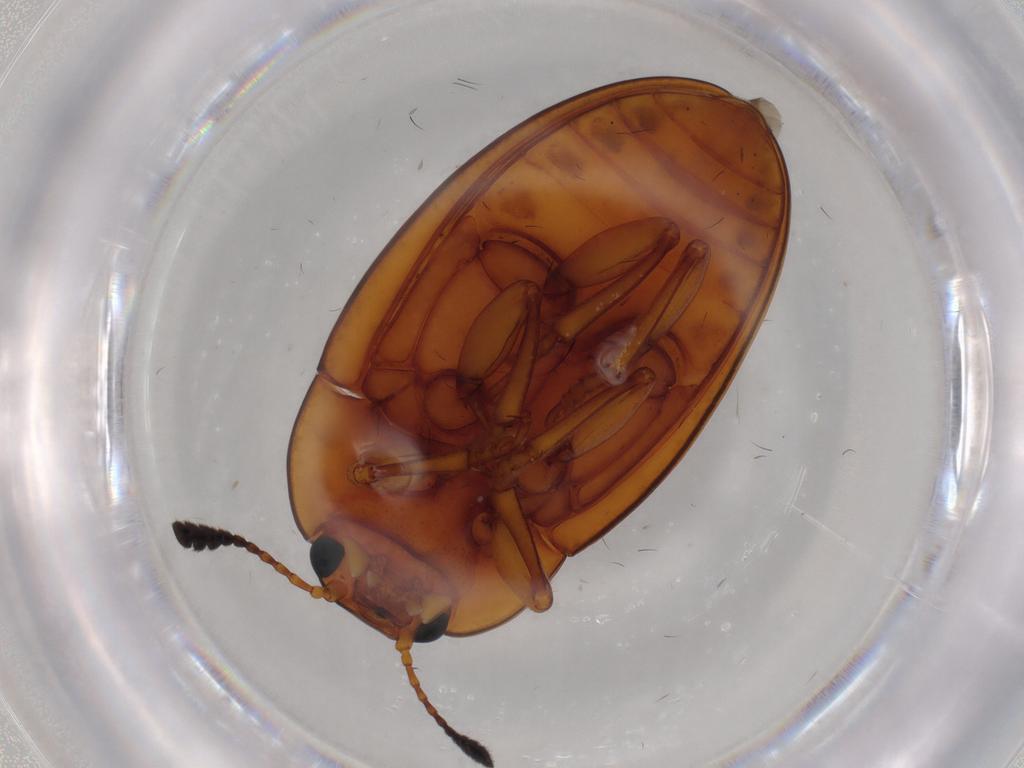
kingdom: Animalia
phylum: Arthropoda
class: Insecta
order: Coleoptera
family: Erotylidae
